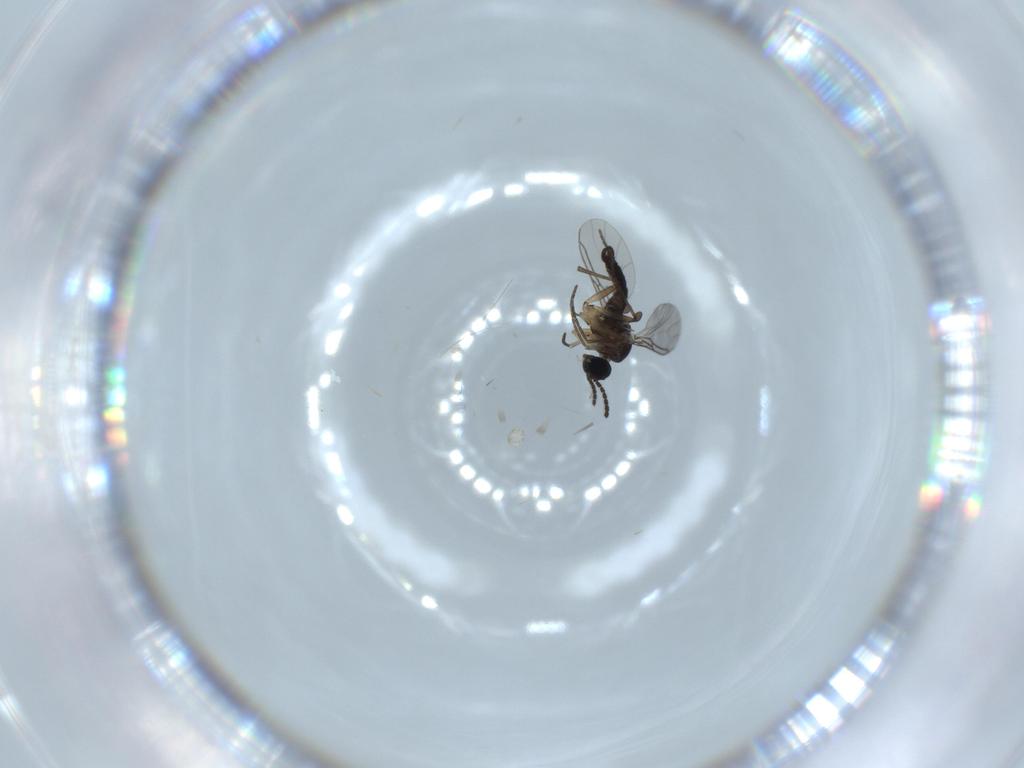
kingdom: Animalia
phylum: Arthropoda
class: Insecta
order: Diptera
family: Sciaridae
